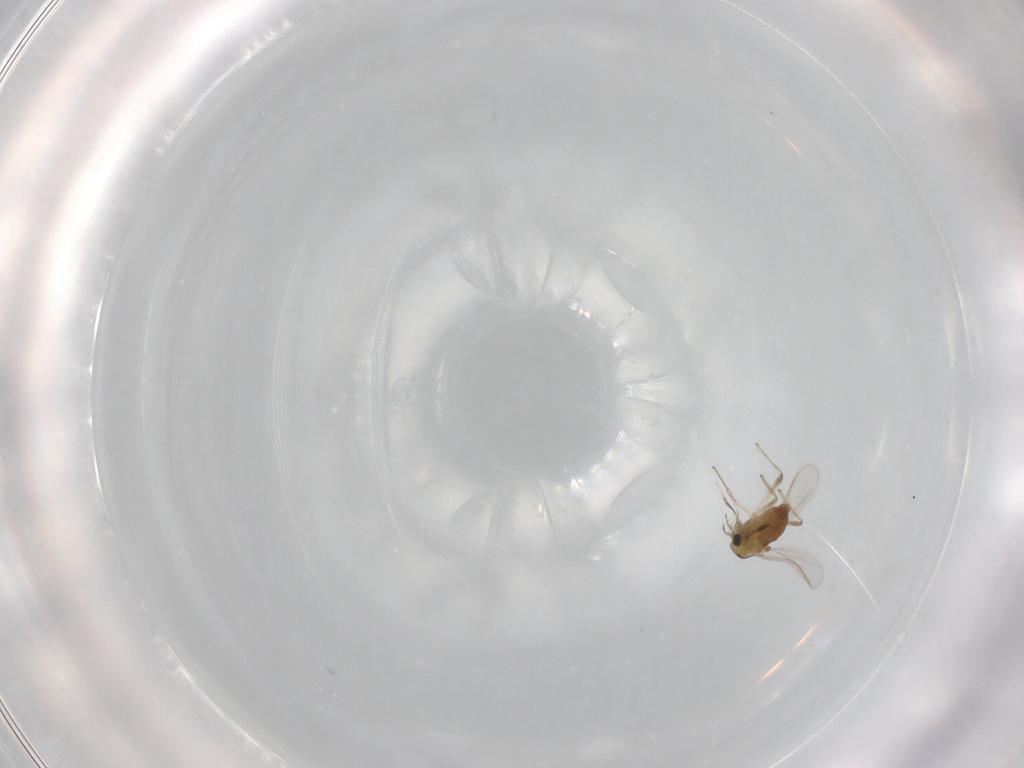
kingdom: Animalia
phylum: Arthropoda
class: Insecta
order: Diptera
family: Chironomidae
